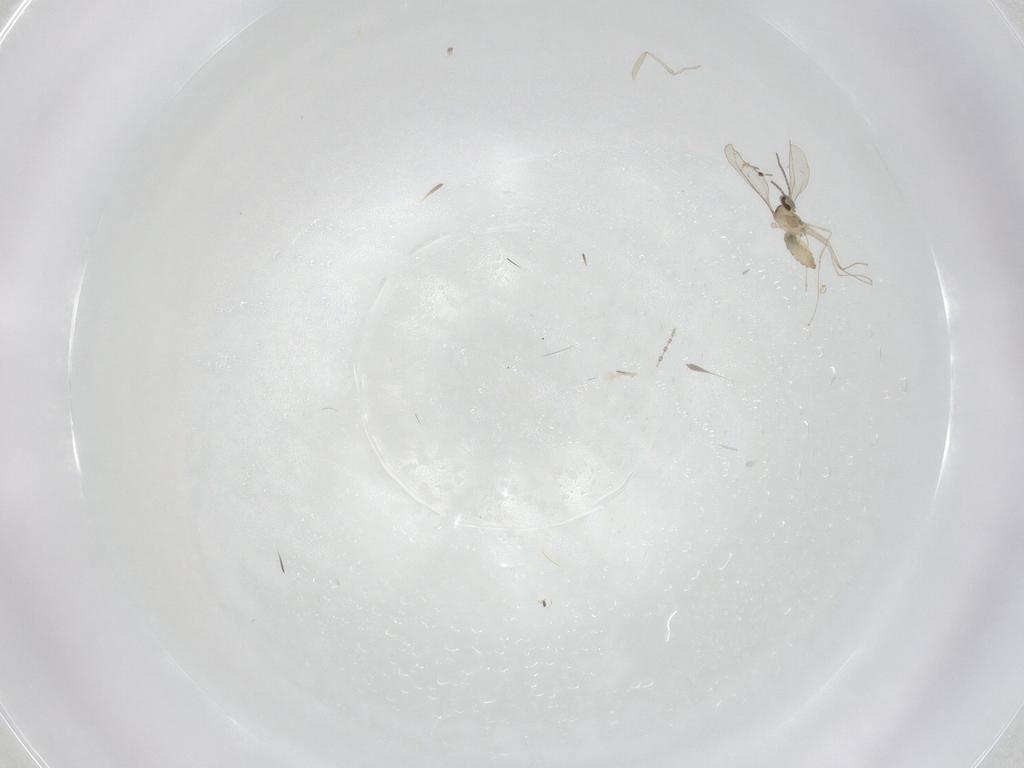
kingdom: Animalia
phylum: Arthropoda
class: Insecta
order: Diptera
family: Cecidomyiidae
